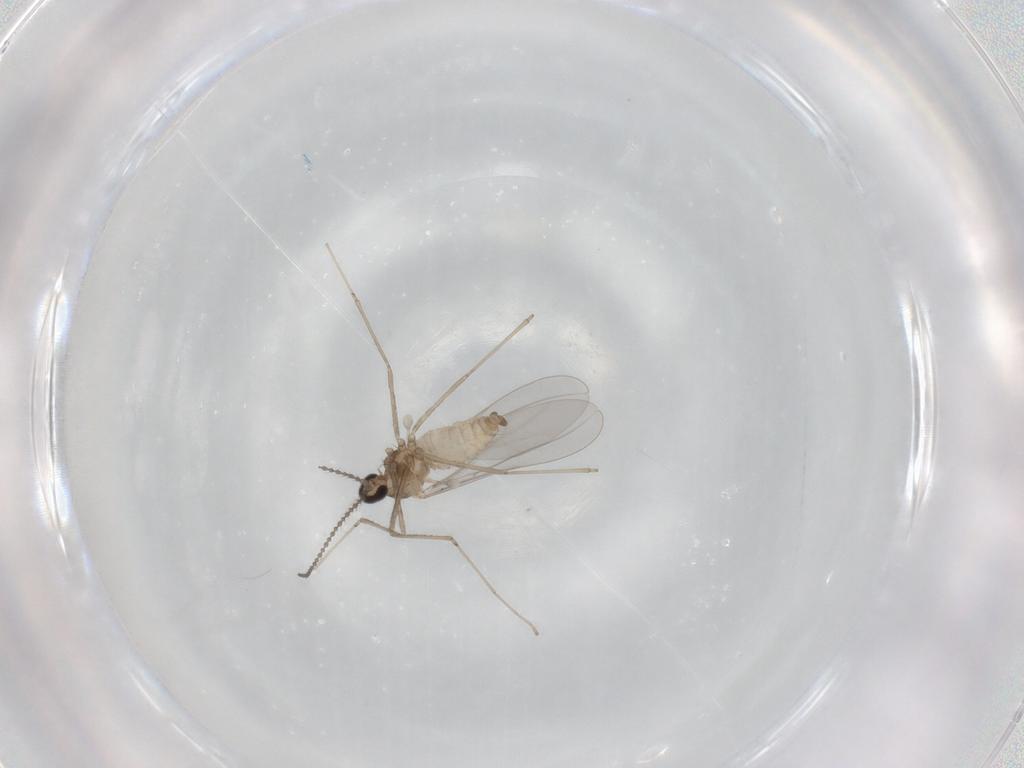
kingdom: Animalia
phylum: Arthropoda
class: Insecta
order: Diptera
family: Cecidomyiidae
